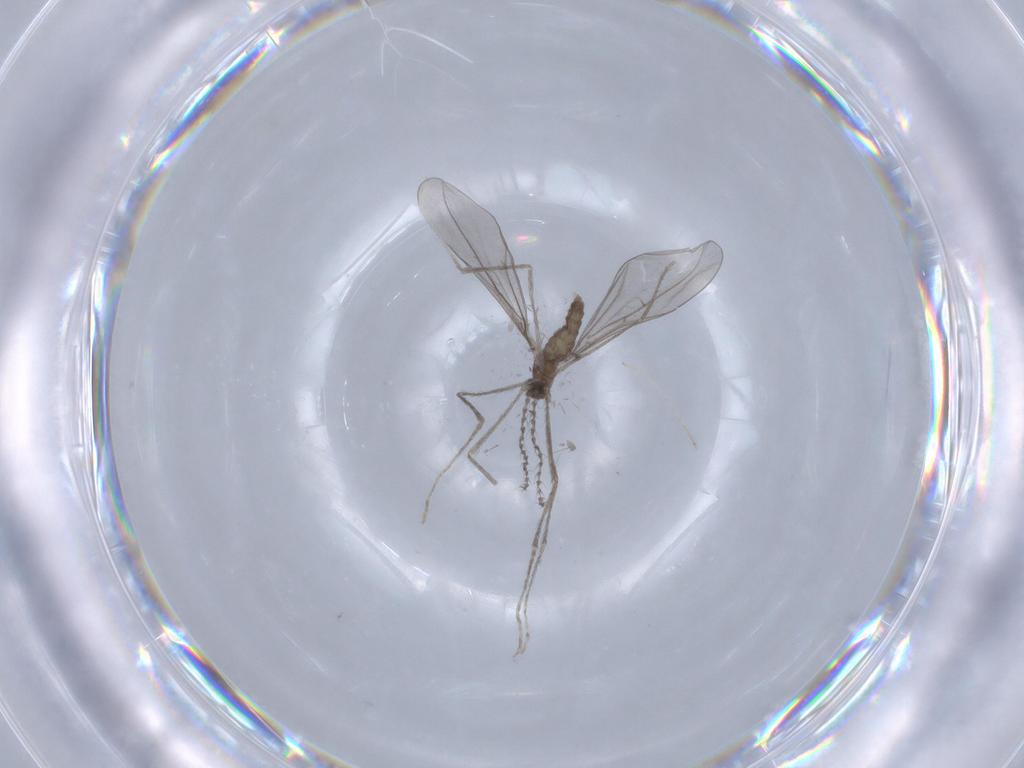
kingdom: Animalia
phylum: Arthropoda
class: Insecta
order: Diptera
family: Cecidomyiidae
